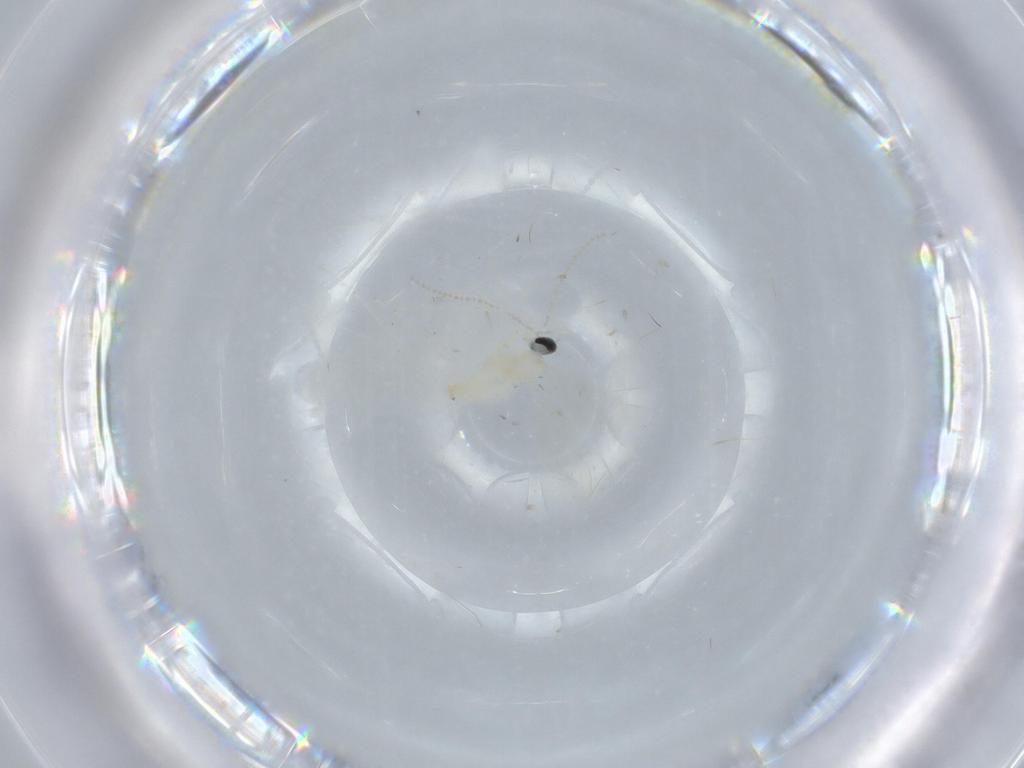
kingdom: Animalia
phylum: Arthropoda
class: Insecta
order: Diptera
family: Cecidomyiidae
